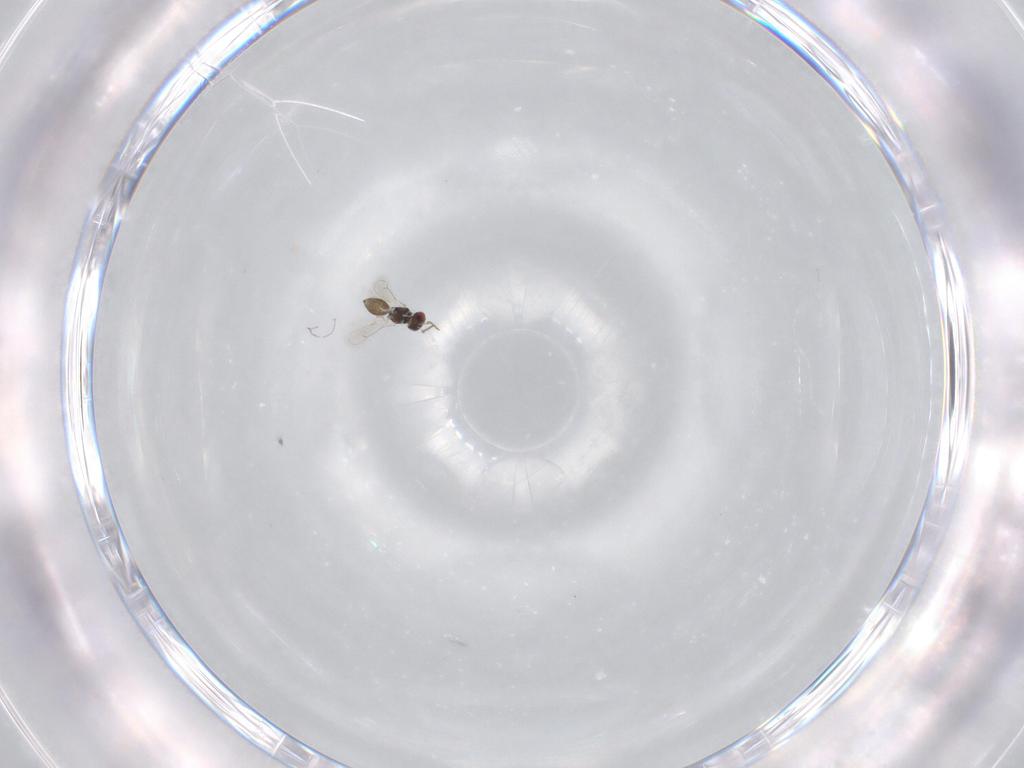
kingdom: Animalia
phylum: Arthropoda
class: Insecta
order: Hymenoptera
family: Eulophidae
